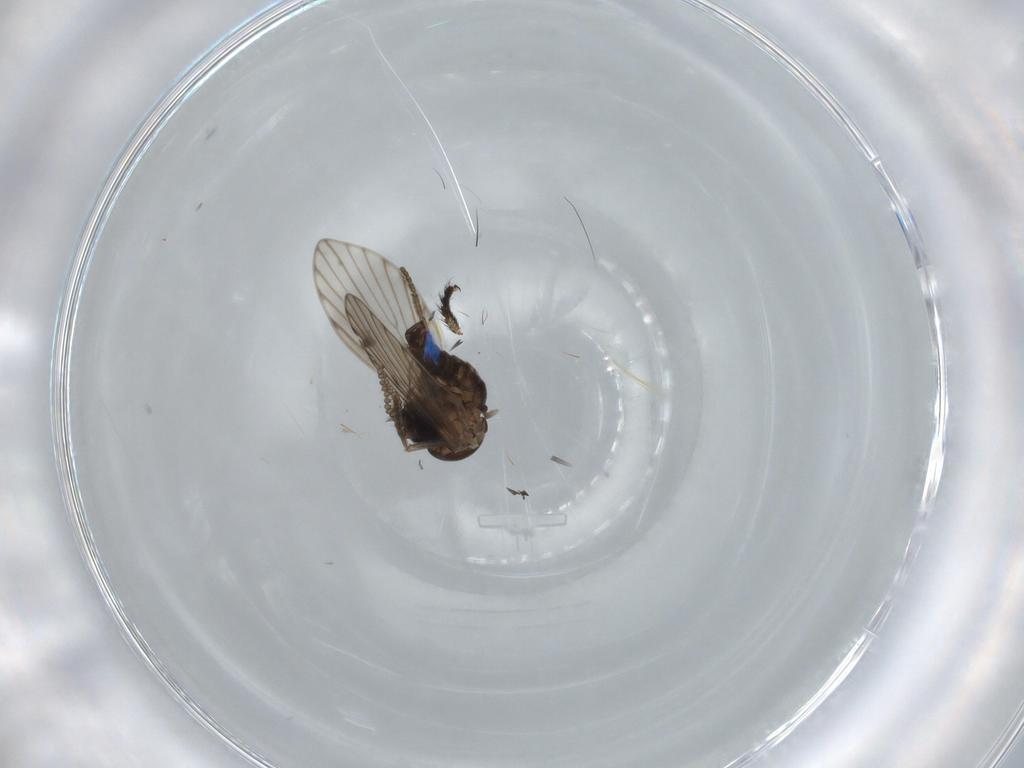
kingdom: Animalia
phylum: Arthropoda
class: Insecta
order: Diptera
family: Psychodidae
